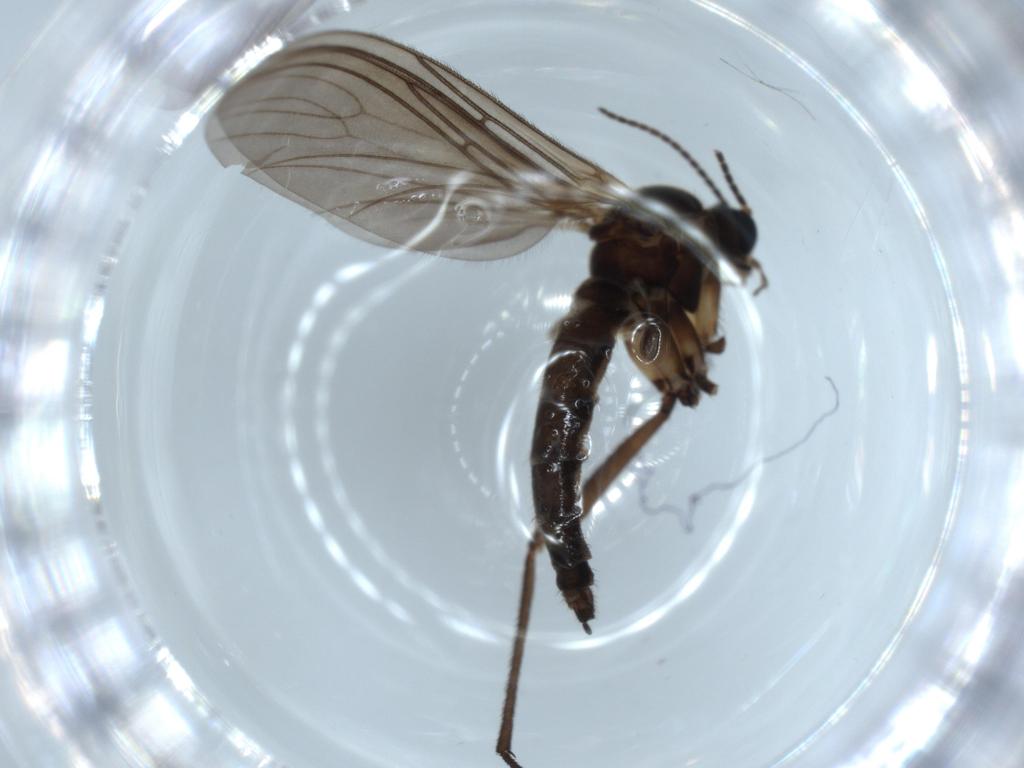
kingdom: Animalia
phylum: Arthropoda
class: Insecta
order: Diptera
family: Sciaridae
